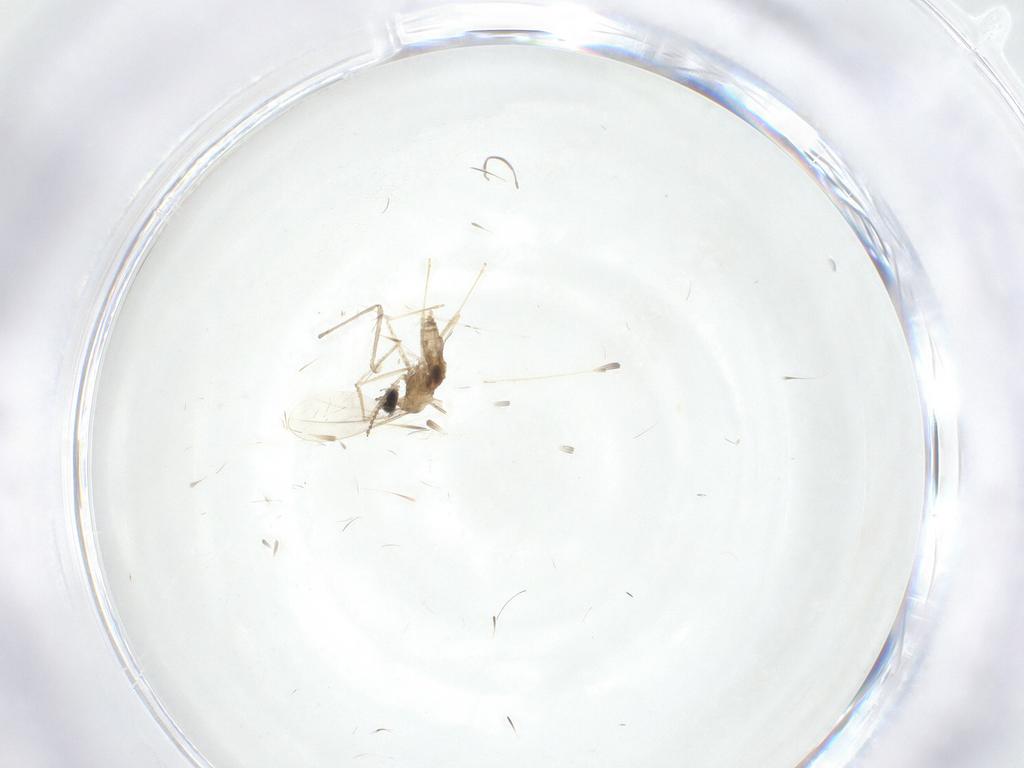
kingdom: Animalia
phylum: Arthropoda
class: Insecta
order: Diptera
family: Cecidomyiidae
